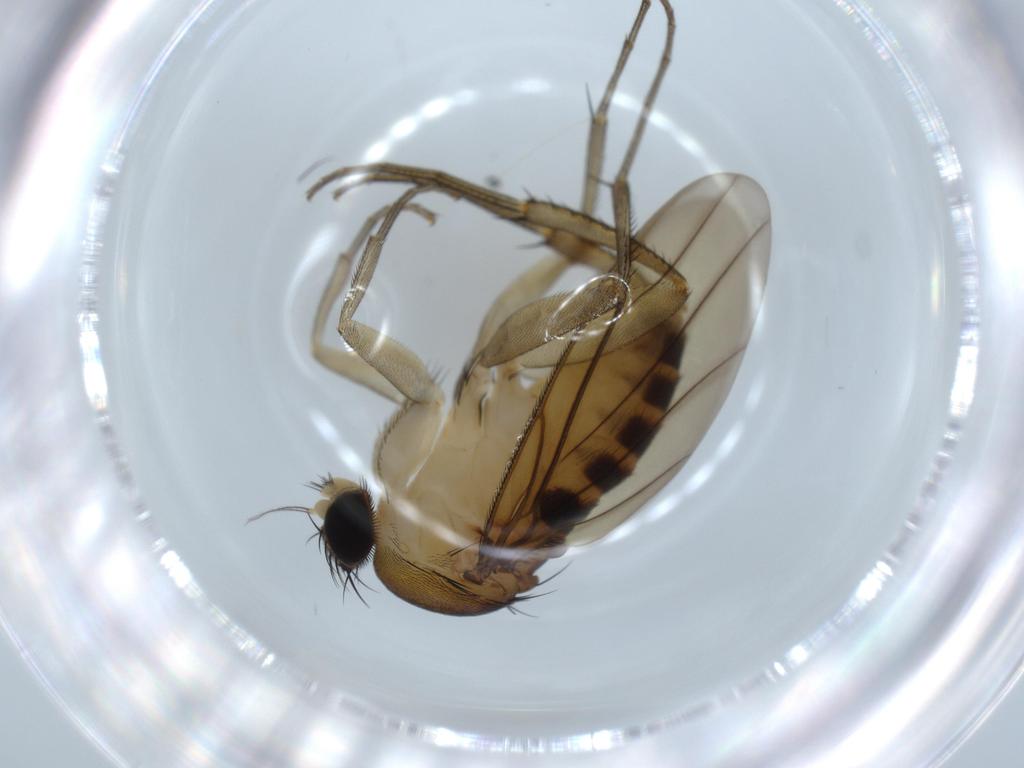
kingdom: Animalia
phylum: Arthropoda
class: Insecta
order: Diptera
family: Phoridae
